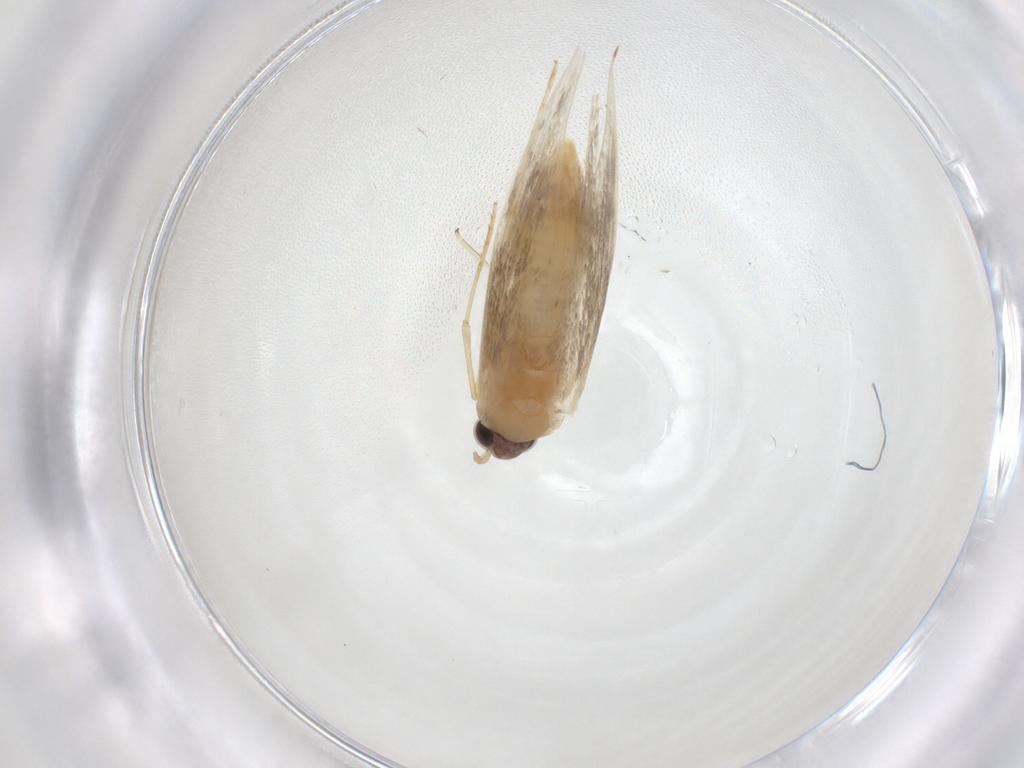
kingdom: Animalia
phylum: Arthropoda
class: Insecta
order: Lepidoptera
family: Tineidae
